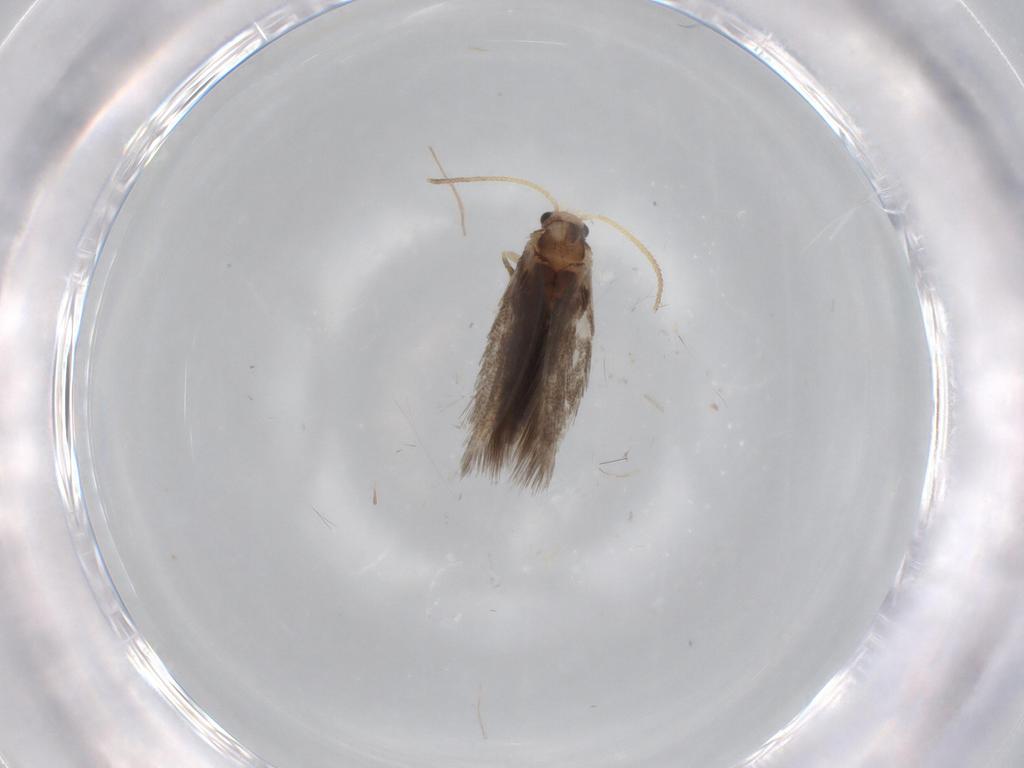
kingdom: Animalia
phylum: Arthropoda
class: Insecta
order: Lepidoptera
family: Nepticulidae
